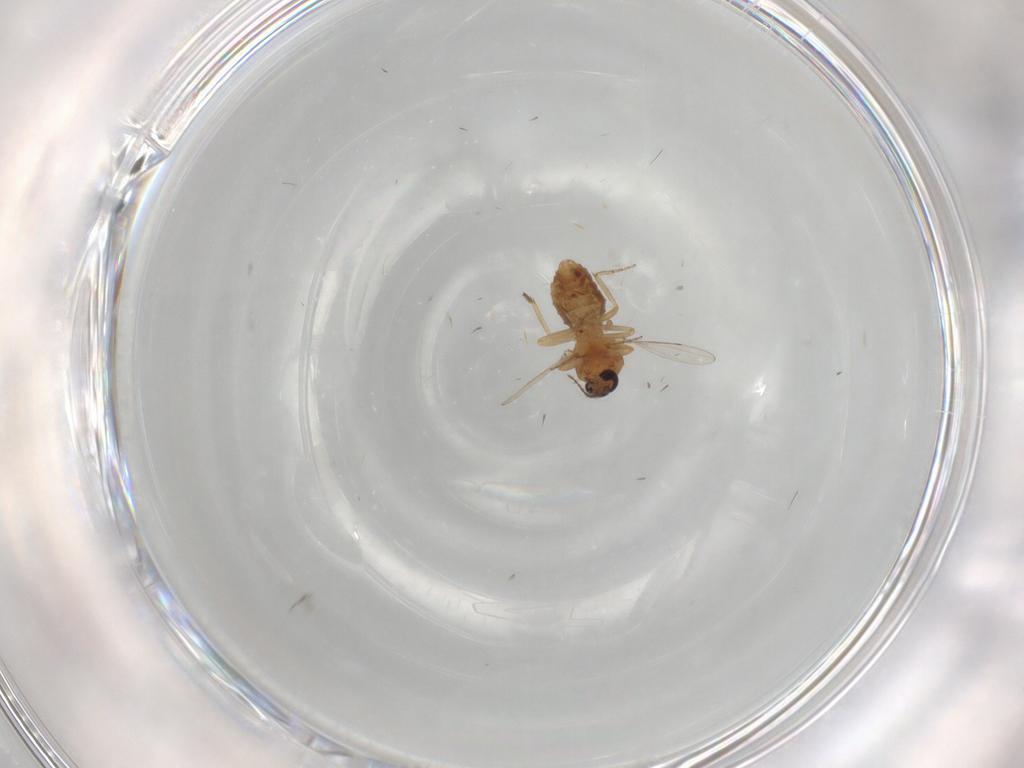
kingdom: Animalia
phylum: Arthropoda
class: Insecta
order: Diptera
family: Ceratopogonidae
